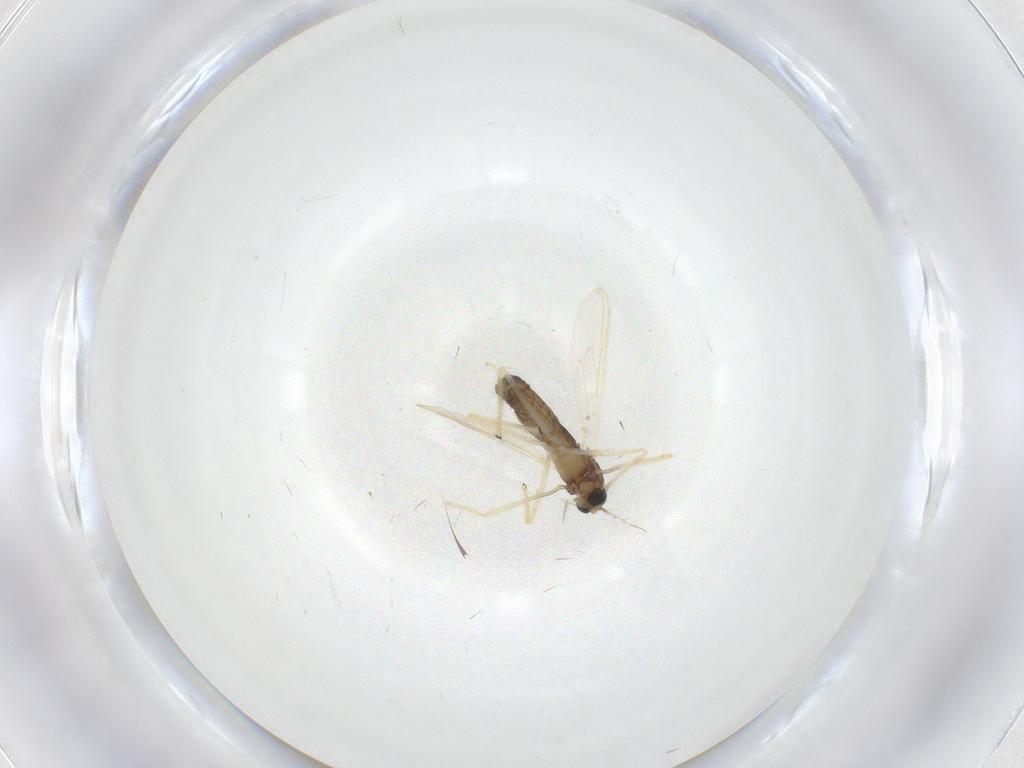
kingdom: Animalia
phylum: Arthropoda
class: Insecta
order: Diptera
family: Chironomidae
